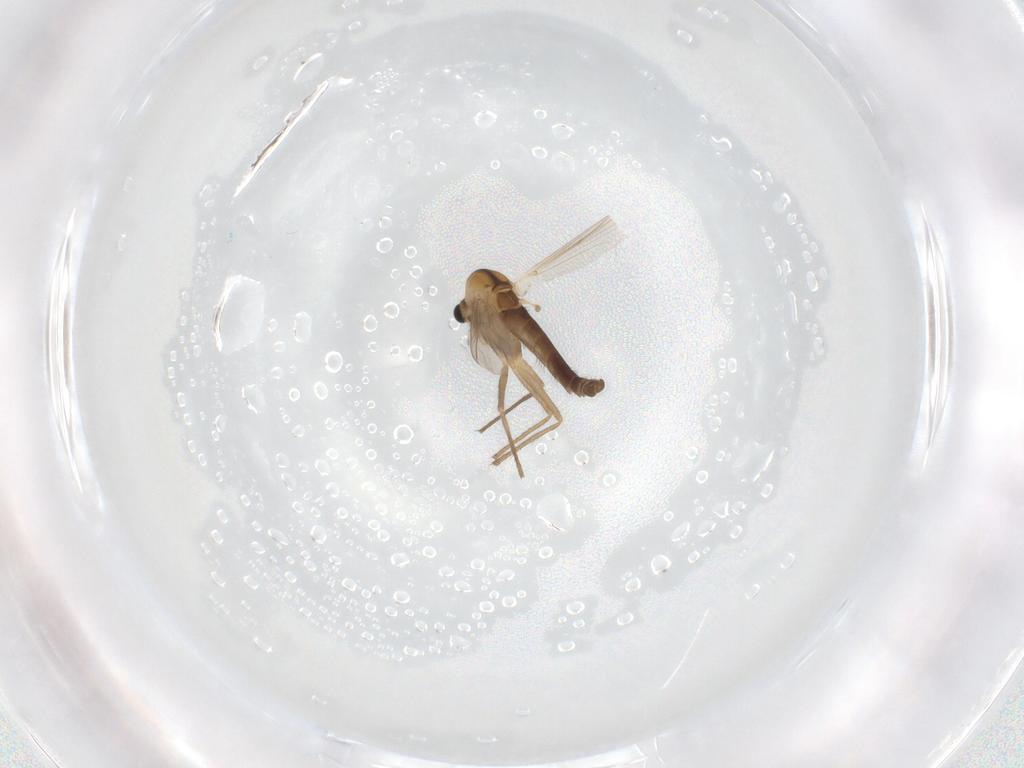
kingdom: Animalia
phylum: Arthropoda
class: Insecta
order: Diptera
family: Chironomidae
